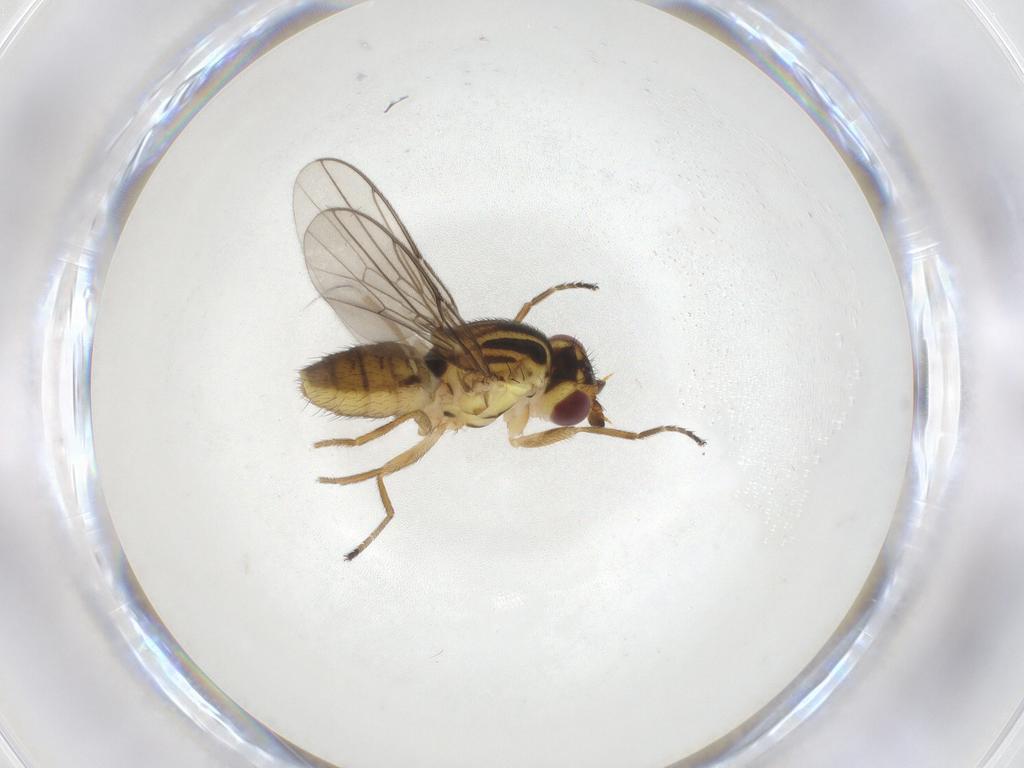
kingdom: Animalia
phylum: Arthropoda
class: Insecta
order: Diptera
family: Chloropidae
